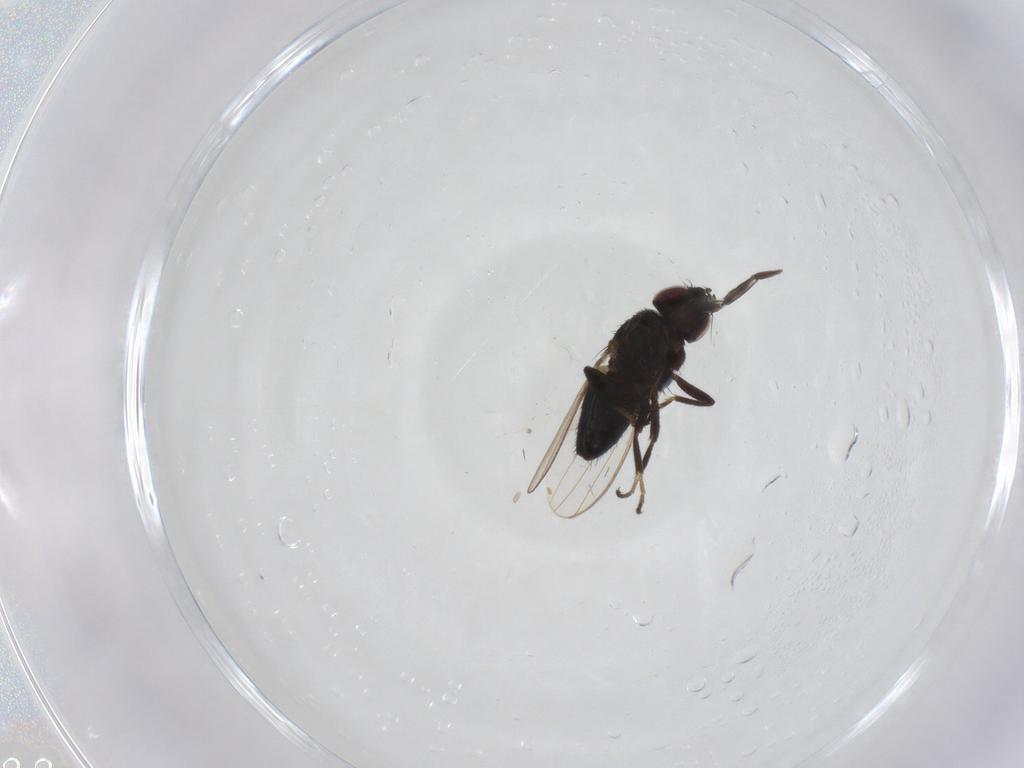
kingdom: Animalia
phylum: Arthropoda
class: Insecta
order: Diptera
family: Milichiidae
